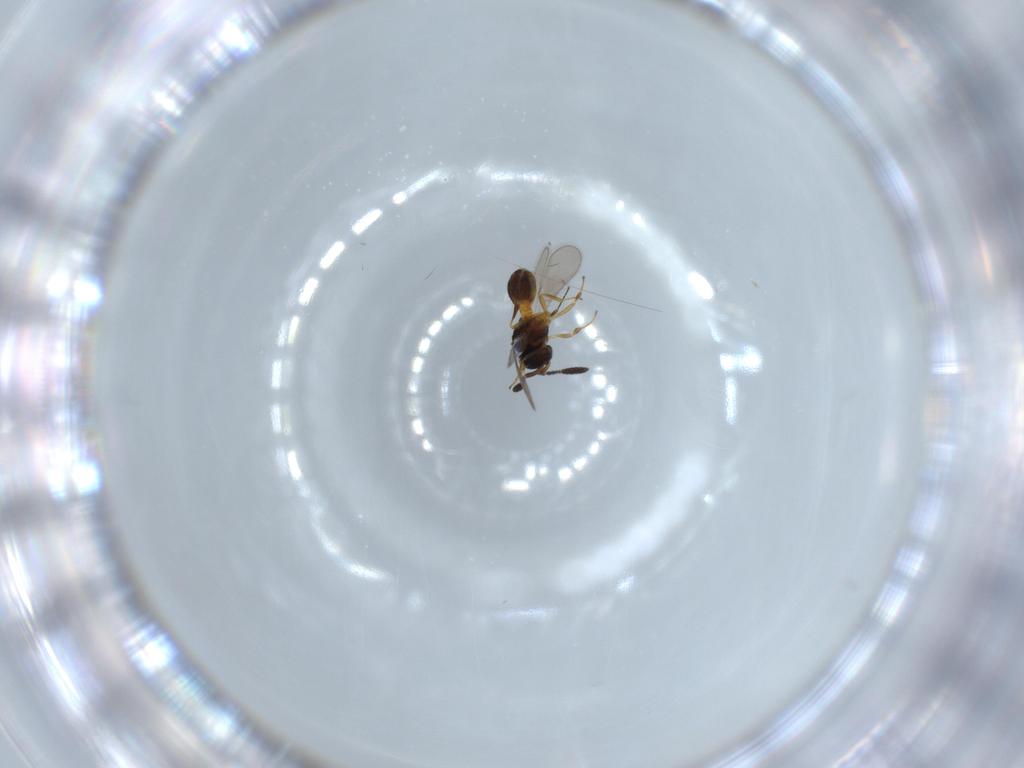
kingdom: Animalia
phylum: Arthropoda
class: Insecta
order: Hymenoptera
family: Scelionidae
